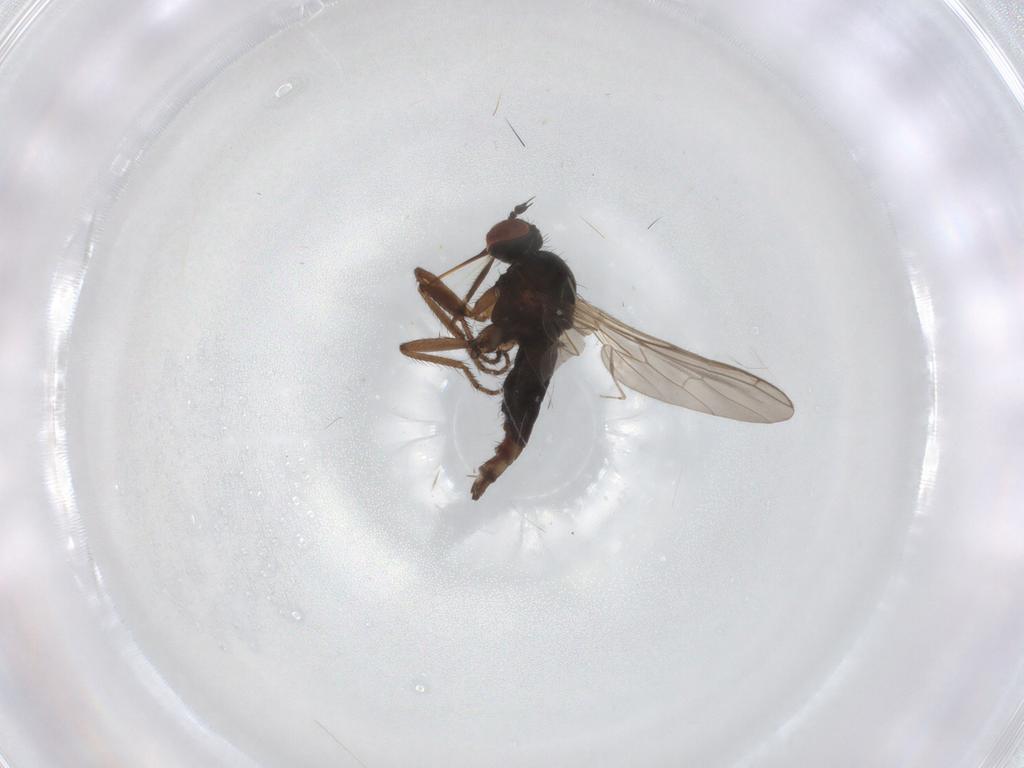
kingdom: Animalia
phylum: Arthropoda
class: Insecta
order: Diptera
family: Empididae
